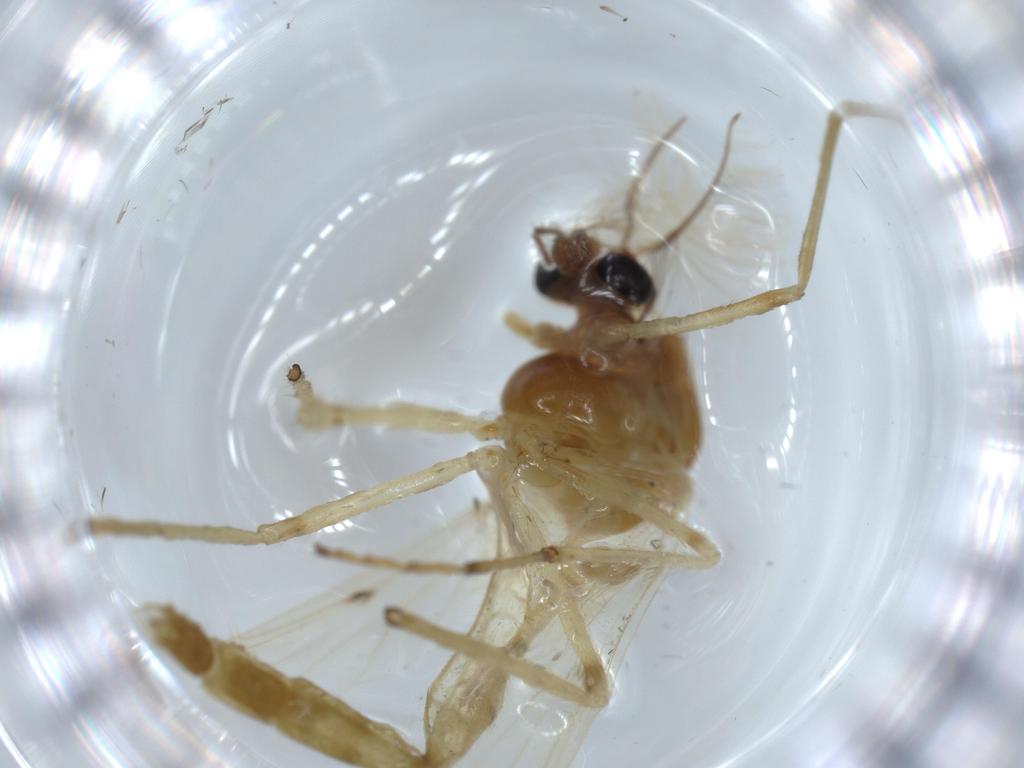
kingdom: Animalia
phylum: Arthropoda
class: Insecta
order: Diptera
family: Chironomidae
